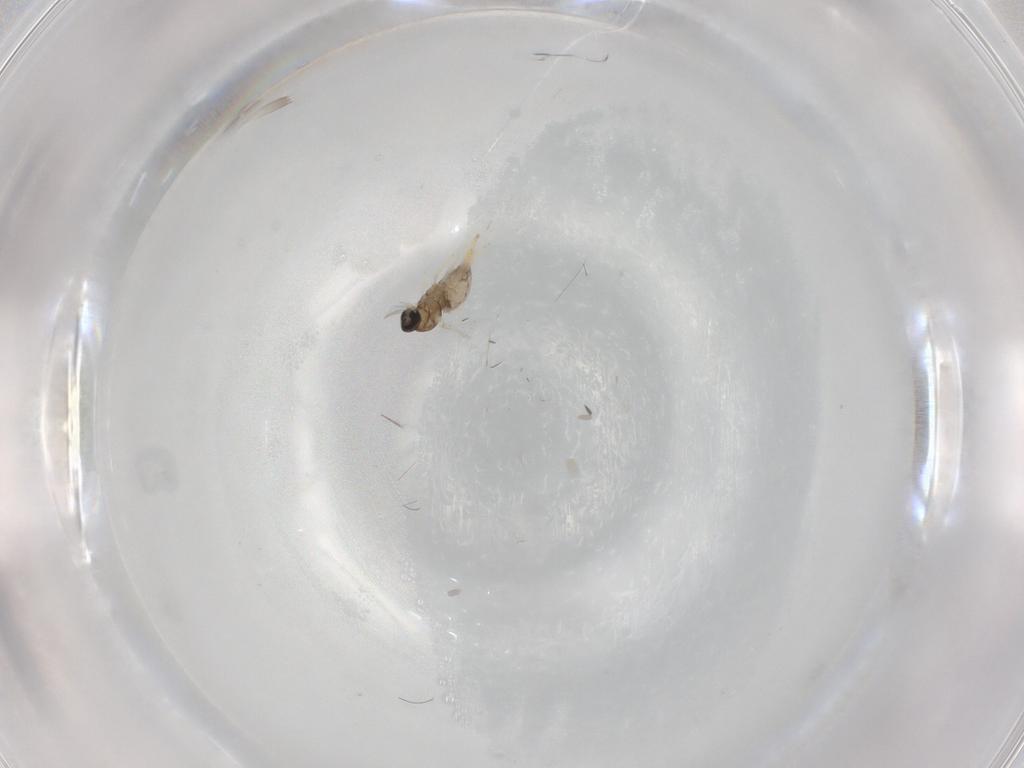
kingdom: Animalia
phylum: Arthropoda
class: Insecta
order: Diptera
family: Cecidomyiidae
